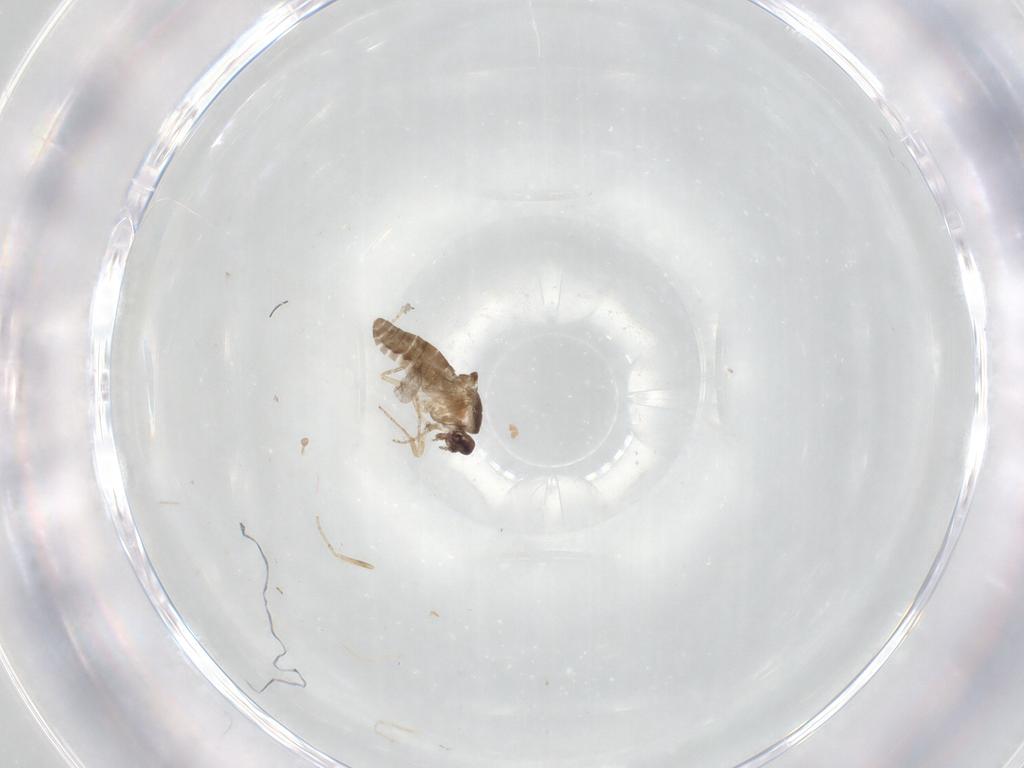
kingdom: Animalia
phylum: Arthropoda
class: Insecta
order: Diptera
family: Ceratopogonidae
